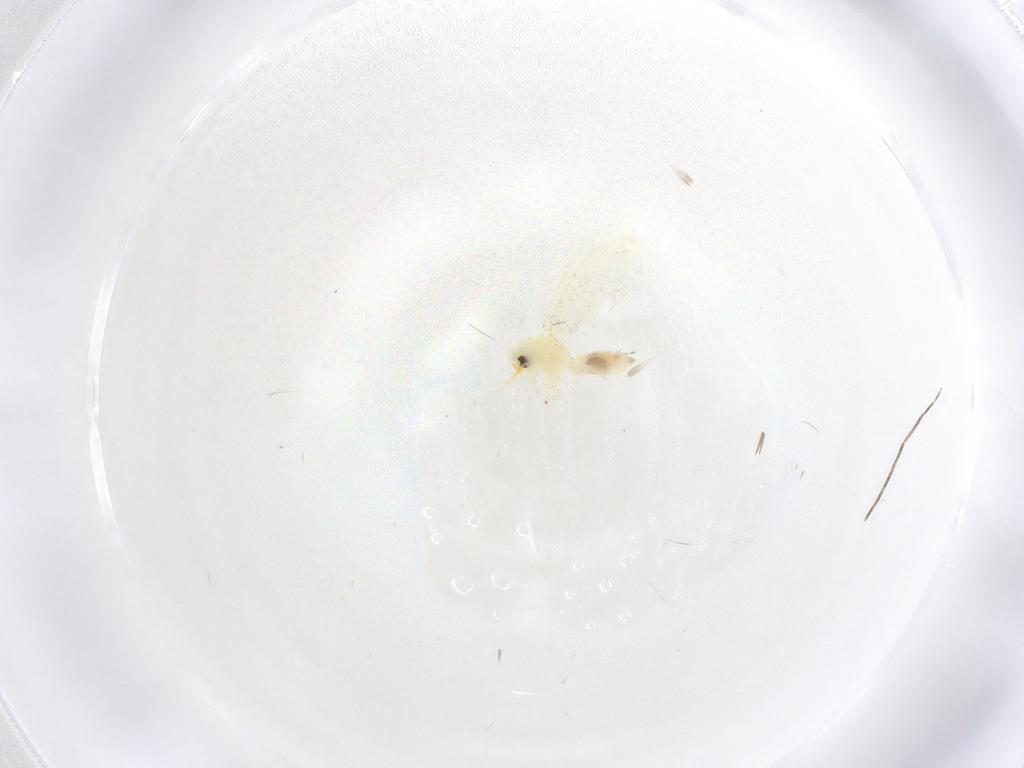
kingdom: Animalia
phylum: Arthropoda
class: Insecta
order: Hemiptera
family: Aleyrodidae
